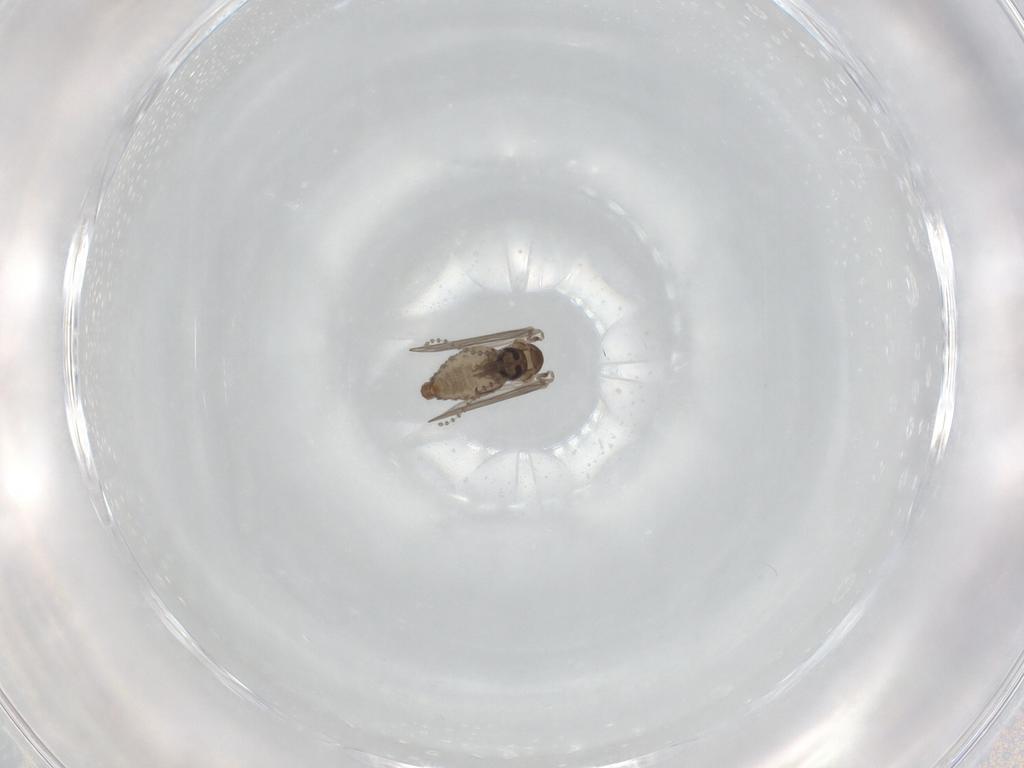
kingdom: Animalia
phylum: Arthropoda
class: Insecta
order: Diptera
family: Psychodidae
